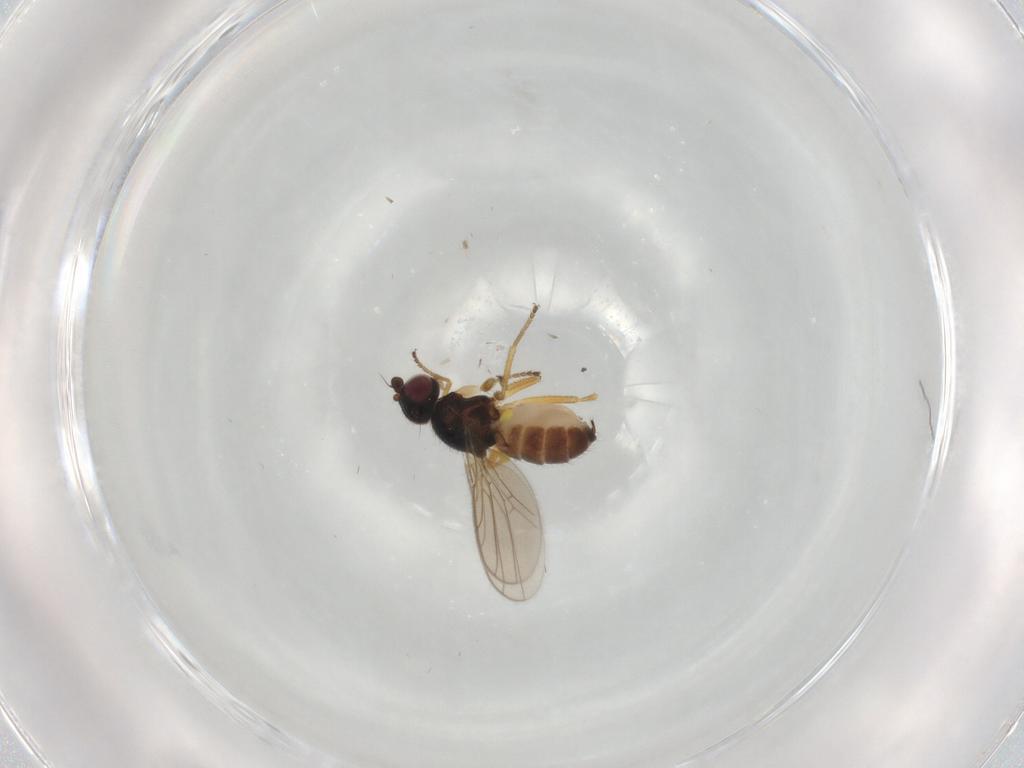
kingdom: Animalia
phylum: Arthropoda
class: Insecta
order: Diptera
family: Chloropidae
